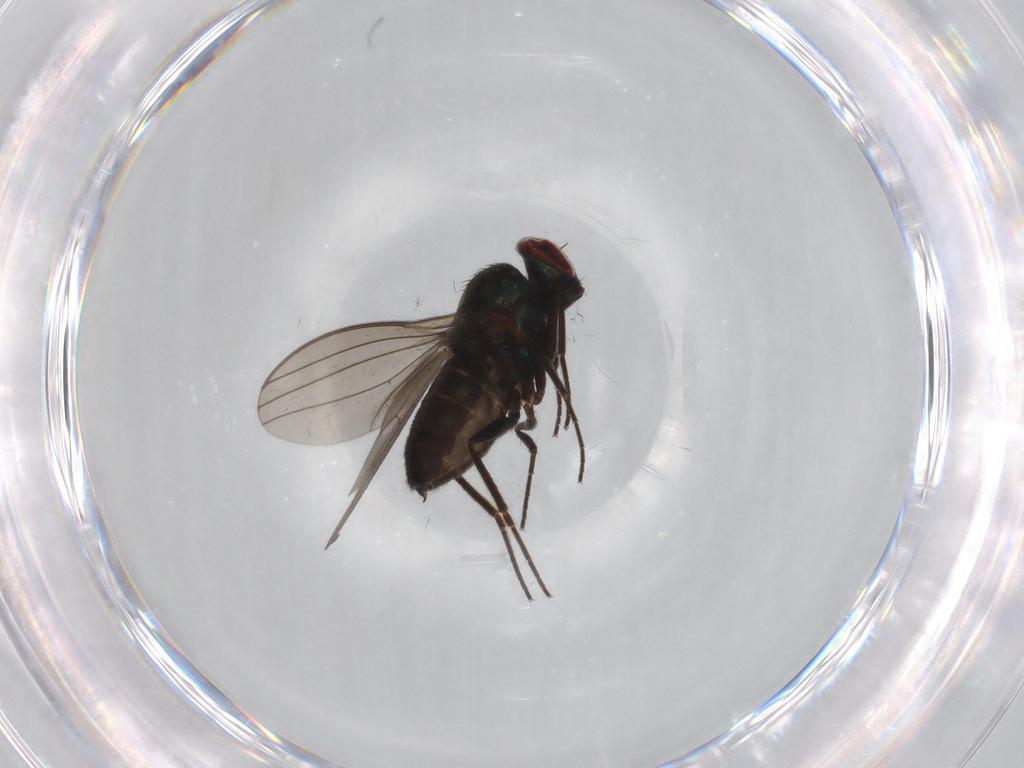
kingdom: Animalia
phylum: Arthropoda
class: Insecta
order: Diptera
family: Dolichopodidae
